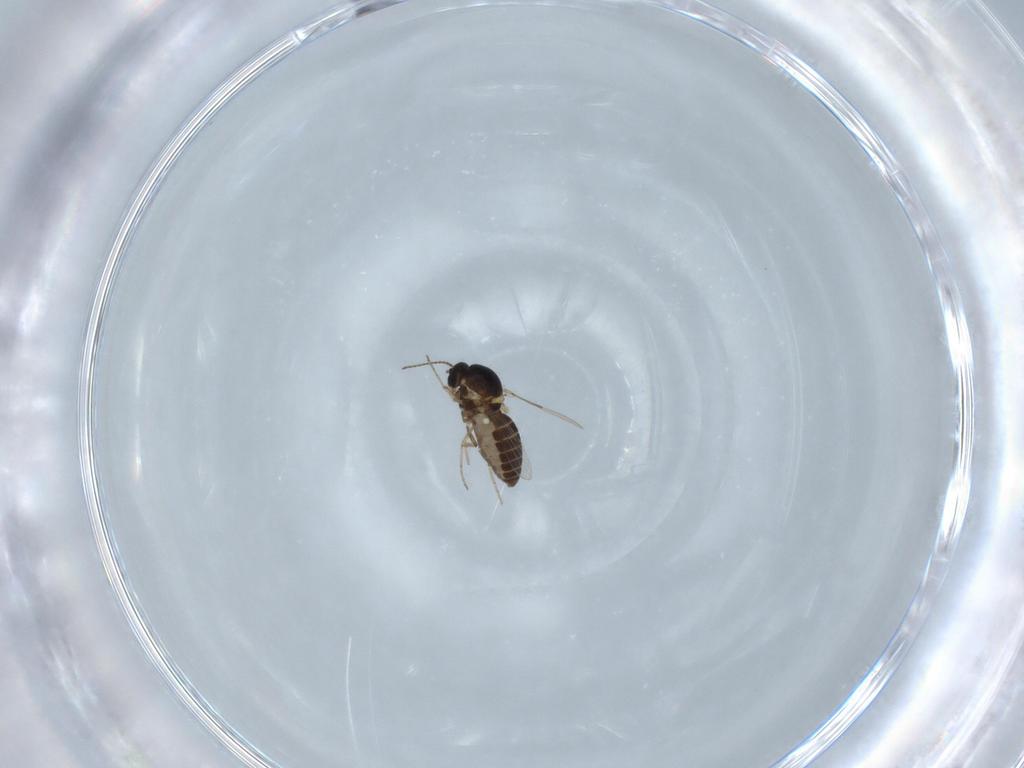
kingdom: Animalia
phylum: Arthropoda
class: Insecta
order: Diptera
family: Ceratopogonidae
